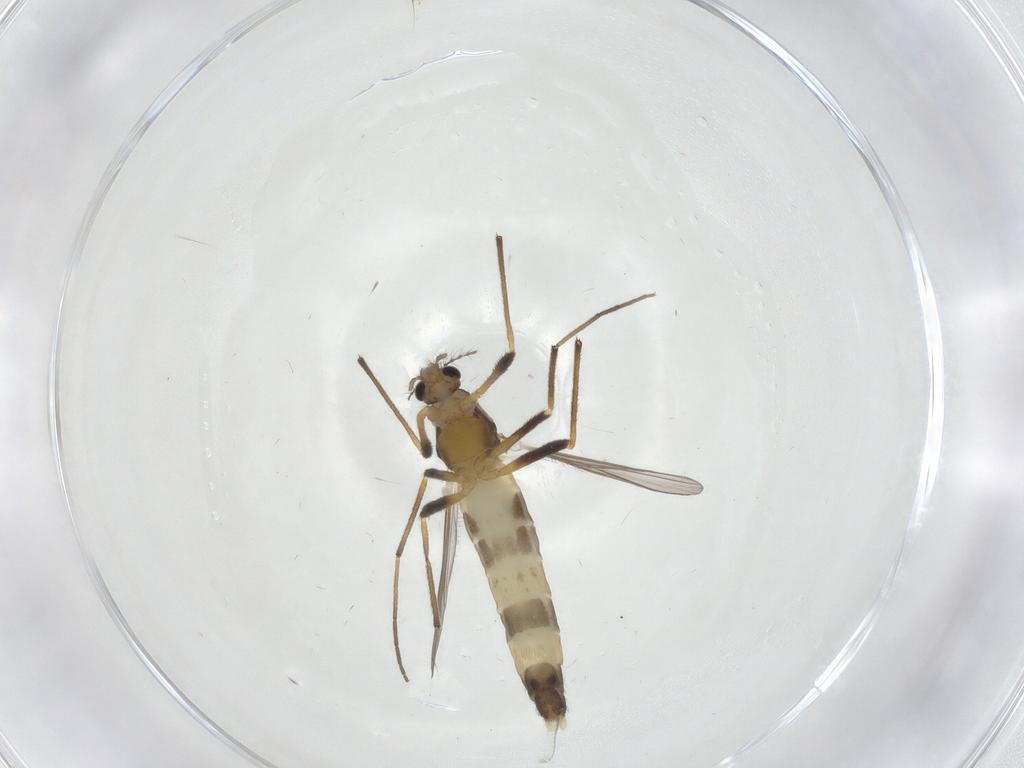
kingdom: Animalia
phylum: Arthropoda
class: Insecta
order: Diptera
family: Chironomidae
